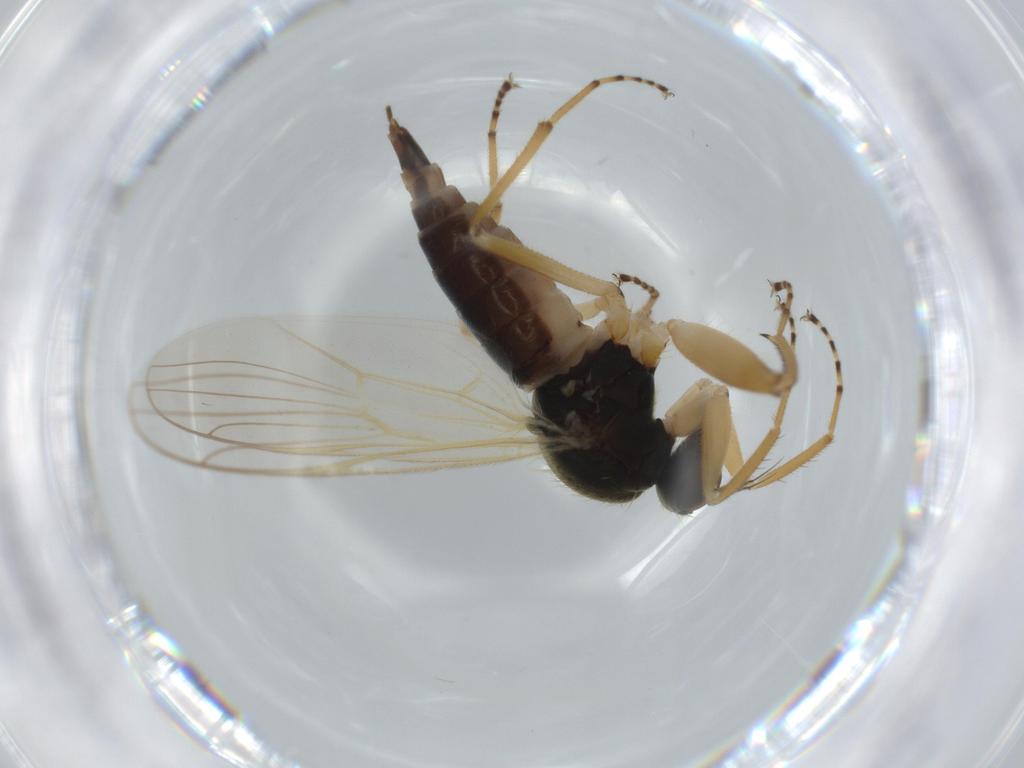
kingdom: Animalia
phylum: Arthropoda
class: Insecta
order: Diptera
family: Hybotidae
